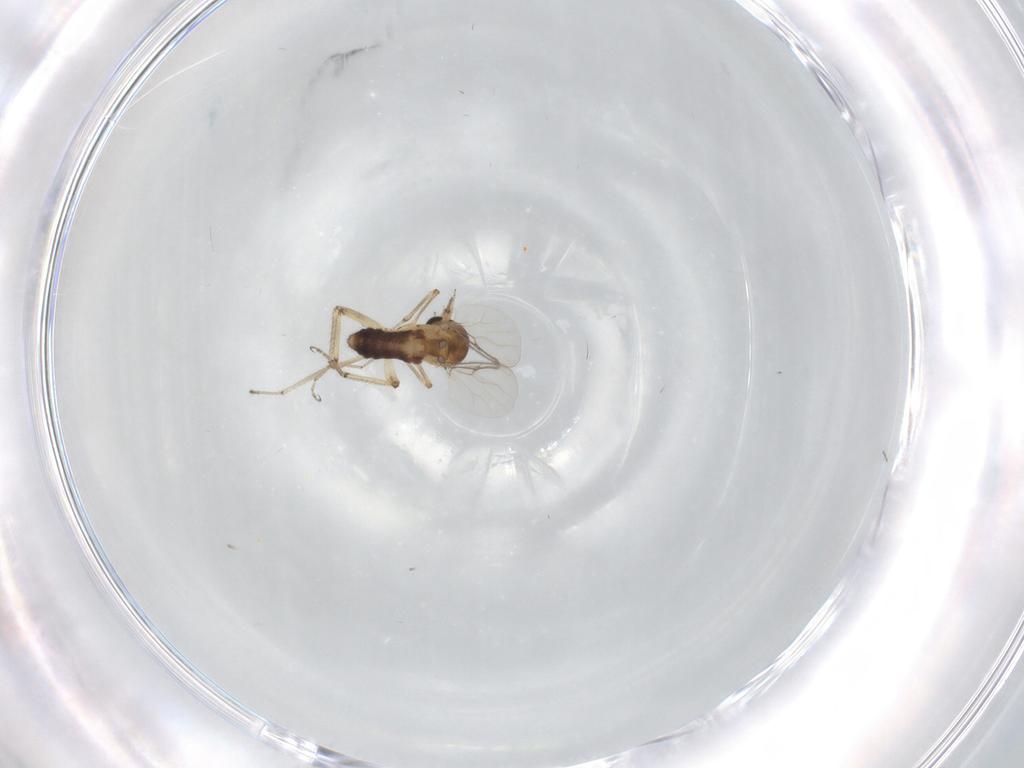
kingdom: Animalia
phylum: Arthropoda
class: Insecta
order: Diptera
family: Ceratopogonidae
